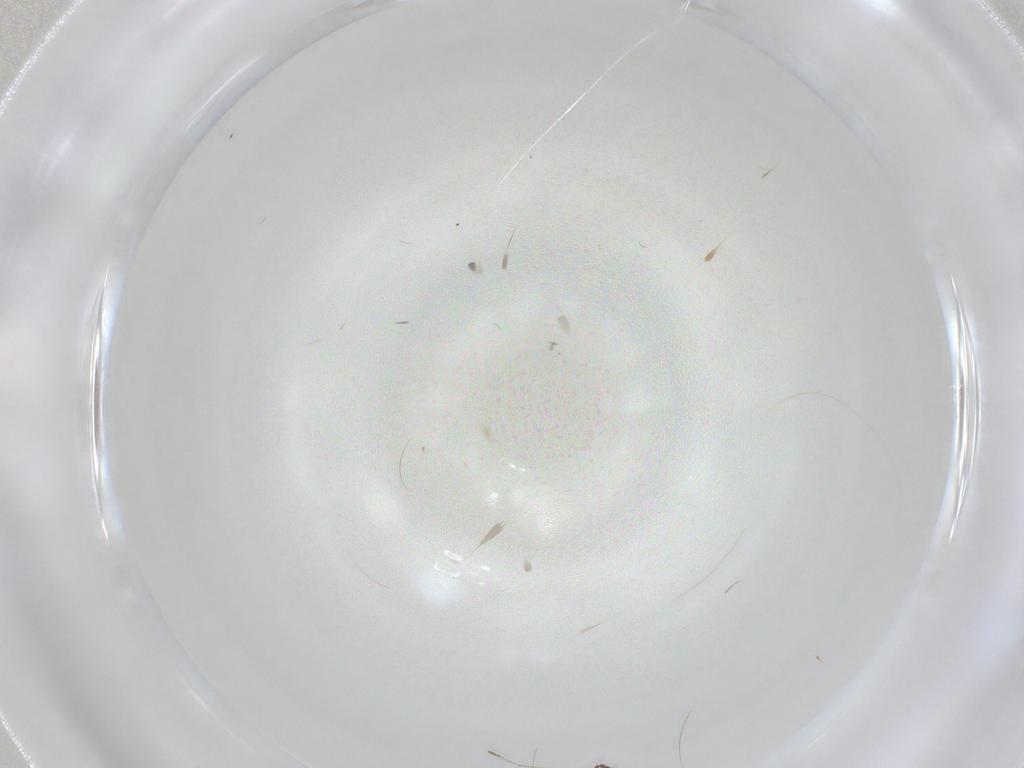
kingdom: Animalia
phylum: Arthropoda
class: Insecta
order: Diptera
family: Cecidomyiidae
